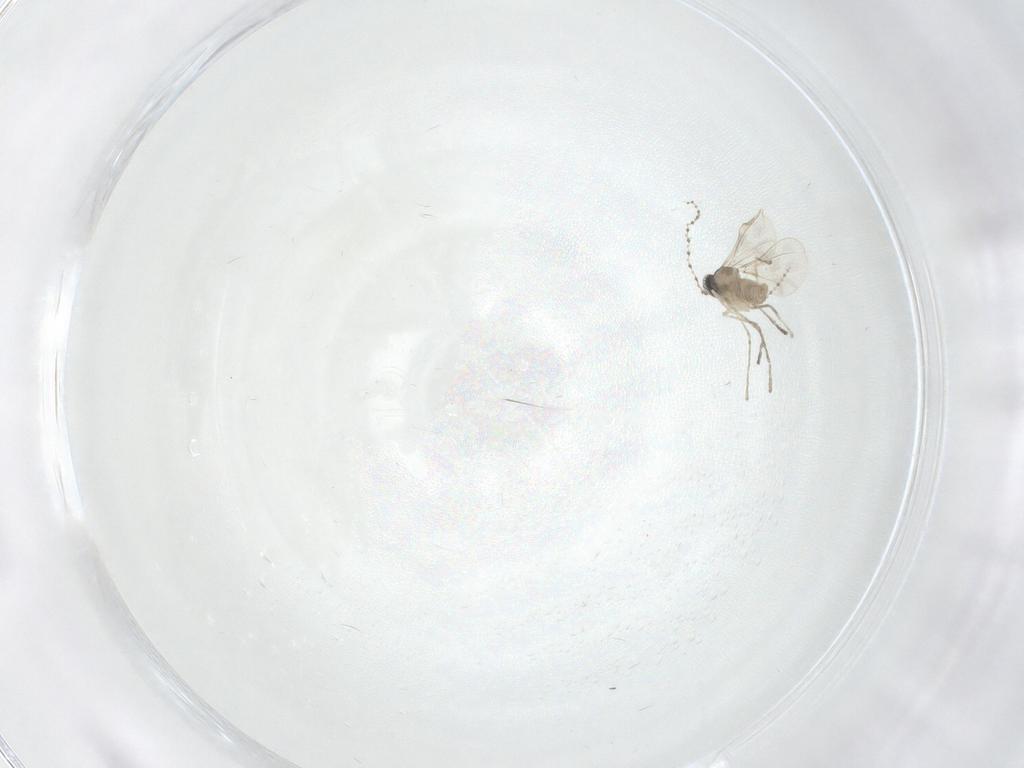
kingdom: Animalia
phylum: Arthropoda
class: Insecta
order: Diptera
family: Cecidomyiidae
